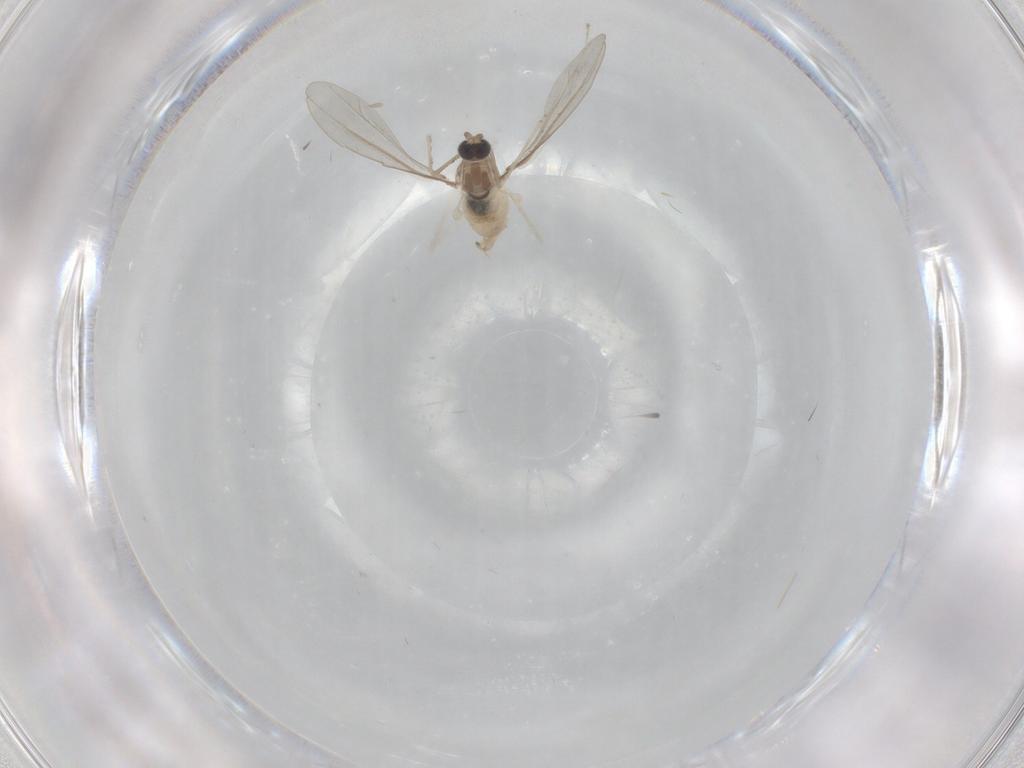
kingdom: Animalia
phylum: Arthropoda
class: Insecta
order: Diptera
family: Cecidomyiidae
